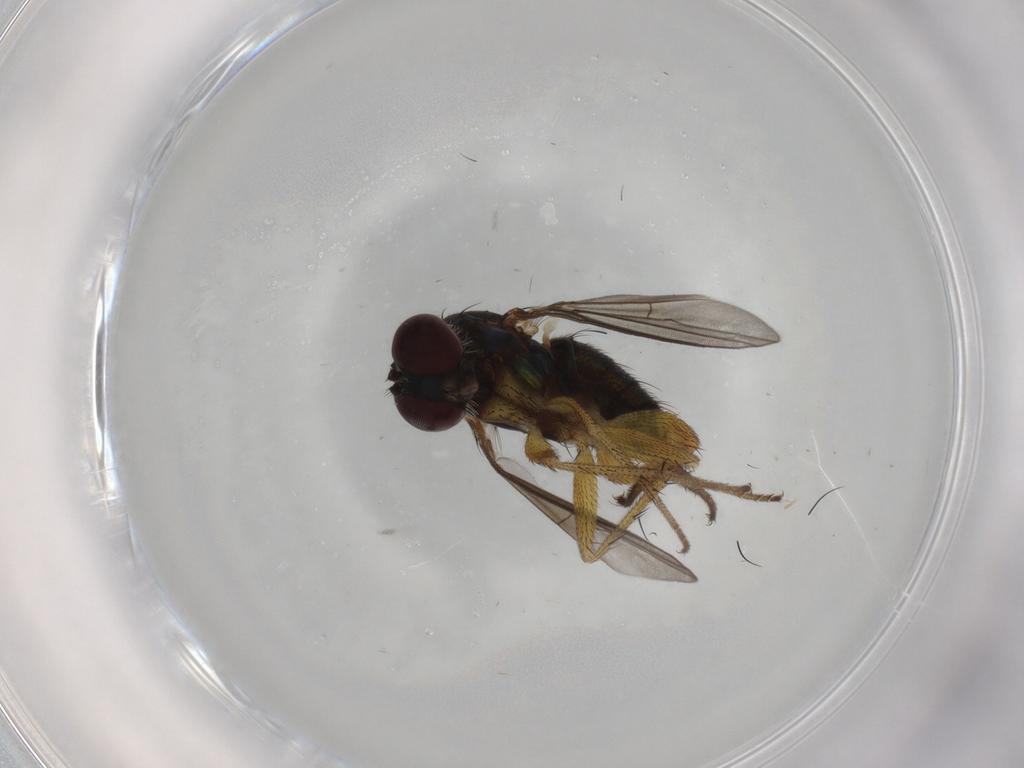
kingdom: Animalia
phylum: Arthropoda
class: Insecta
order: Diptera
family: Dolichopodidae
